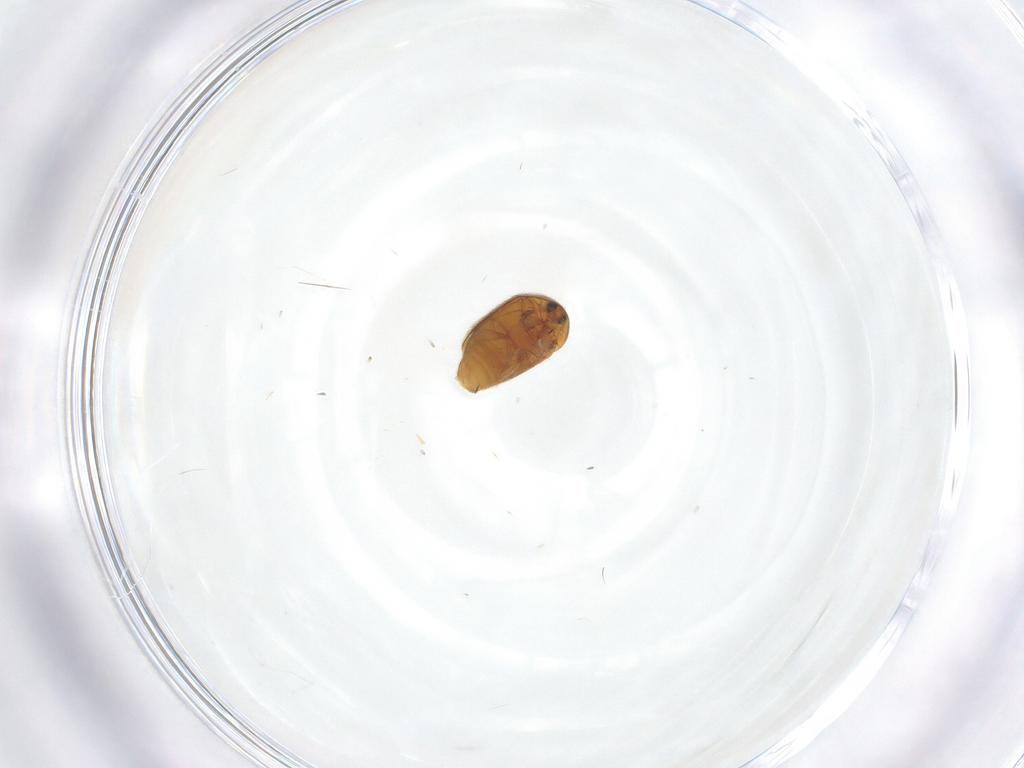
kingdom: Animalia
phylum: Arthropoda
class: Insecta
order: Coleoptera
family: Corylophidae
